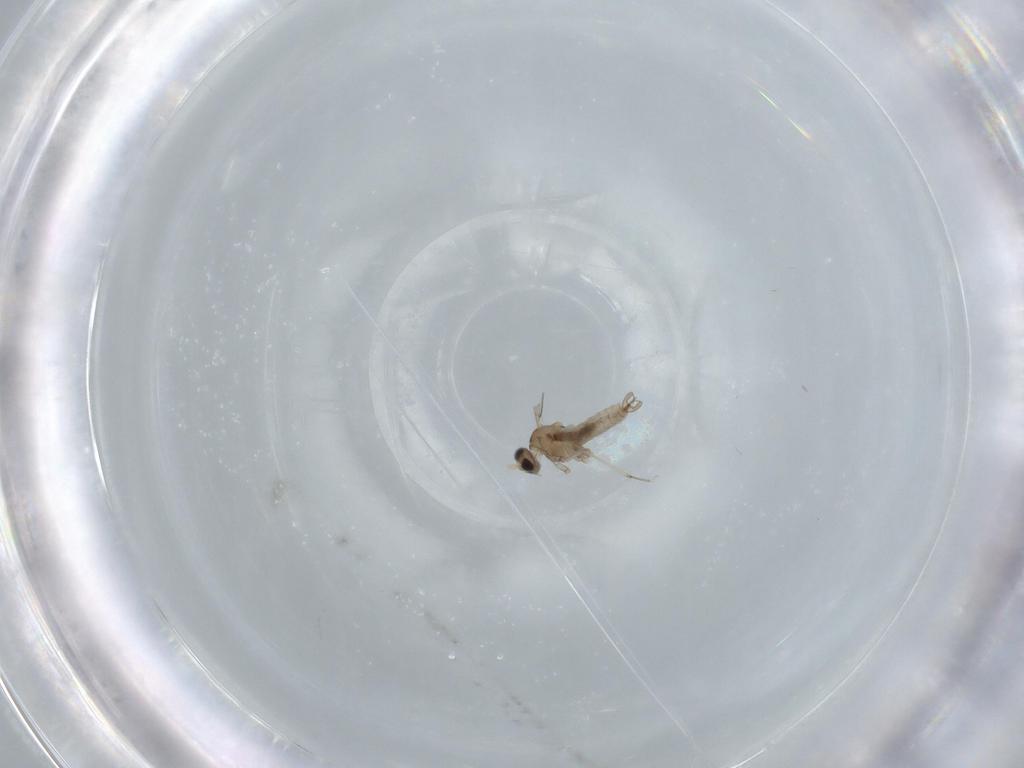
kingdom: Animalia
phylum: Arthropoda
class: Insecta
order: Diptera
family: Cecidomyiidae
